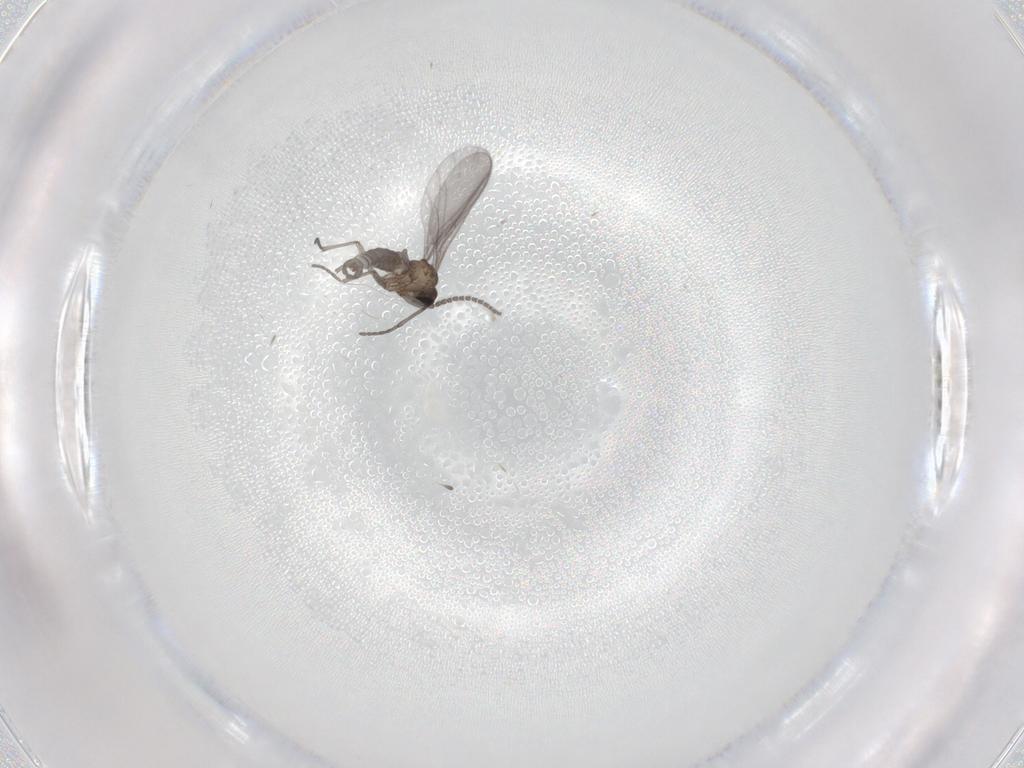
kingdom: Animalia
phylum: Arthropoda
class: Insecta
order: Diptera
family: Sciaridae
